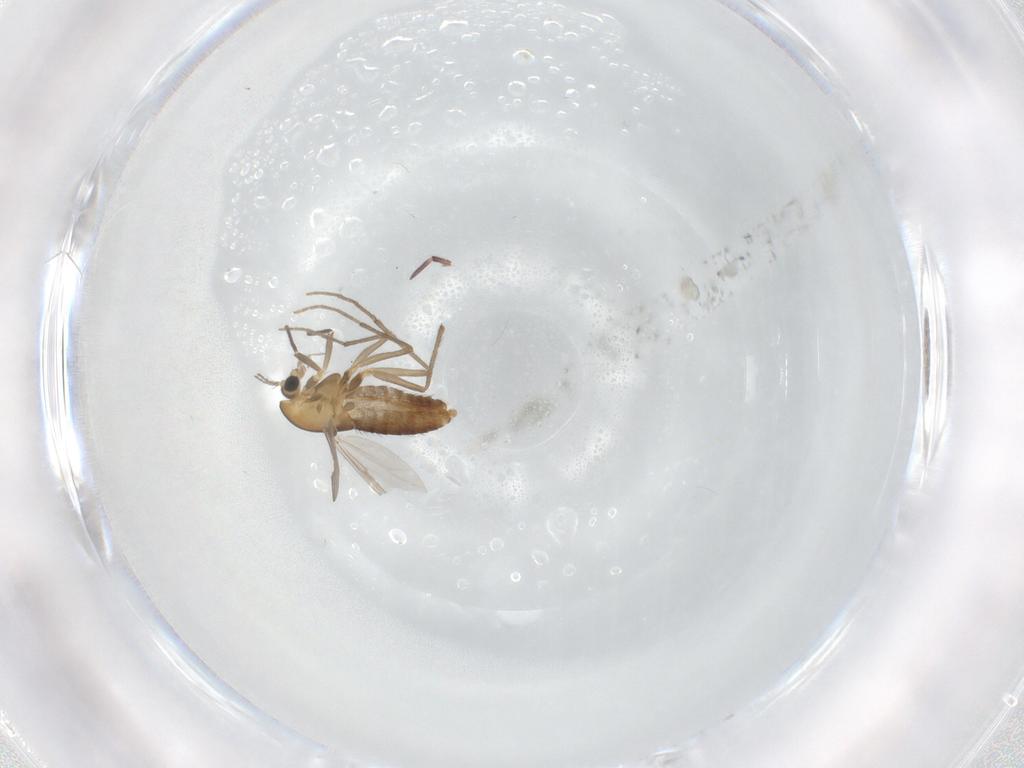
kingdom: Animalia
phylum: Arthropoda
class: Insecta
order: Diptera
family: Chironomidae
